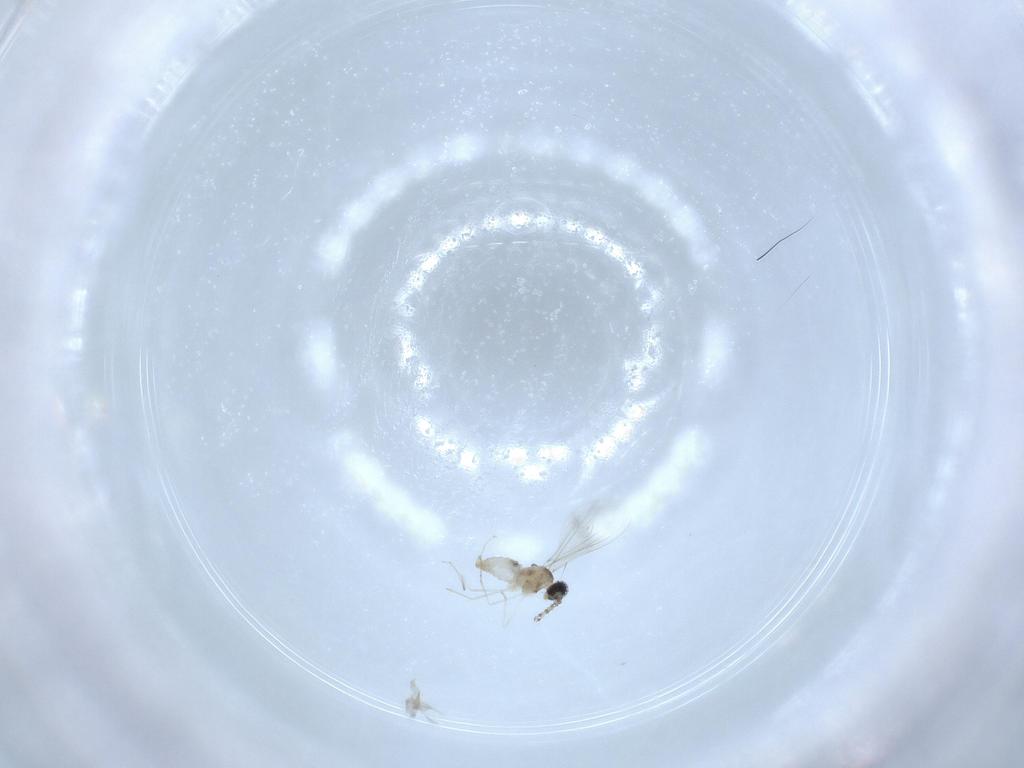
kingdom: Animalia
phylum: Arthropoda
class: Insecta
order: Diptera
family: Cecidomyiidae
